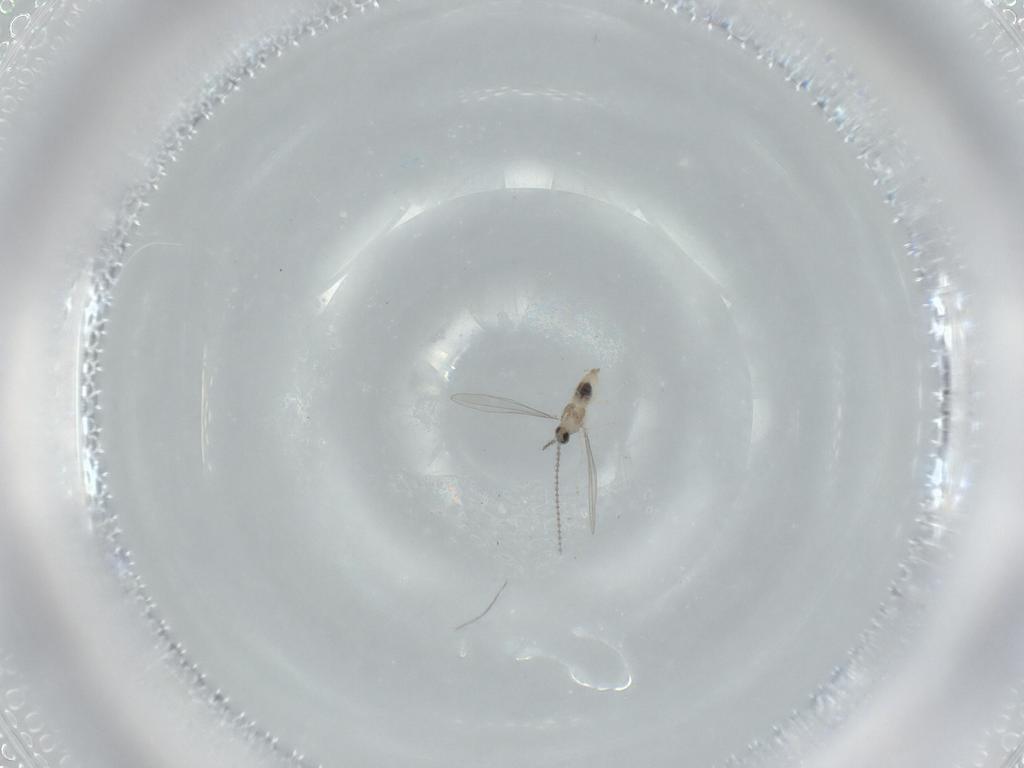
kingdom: Animalia
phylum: Arthropoda
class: Insecta
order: Diptera
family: Cecidomyiidae
